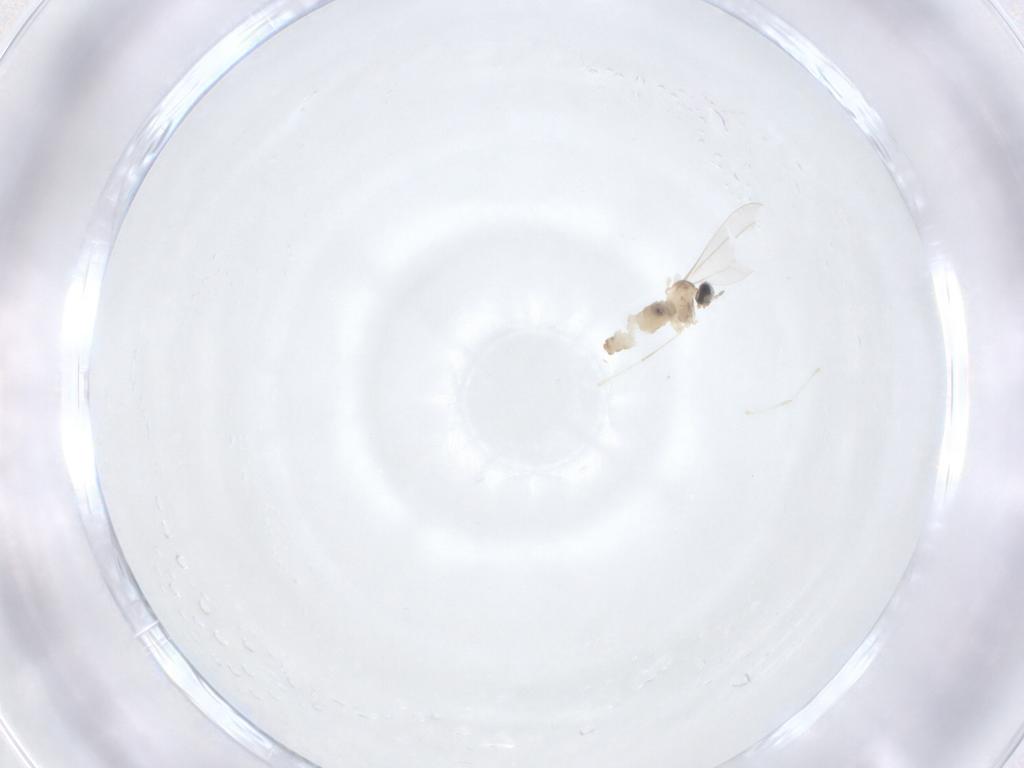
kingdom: Animalia
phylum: Arthropoda
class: Insecta
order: Diptera
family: Cecidomyiidae
